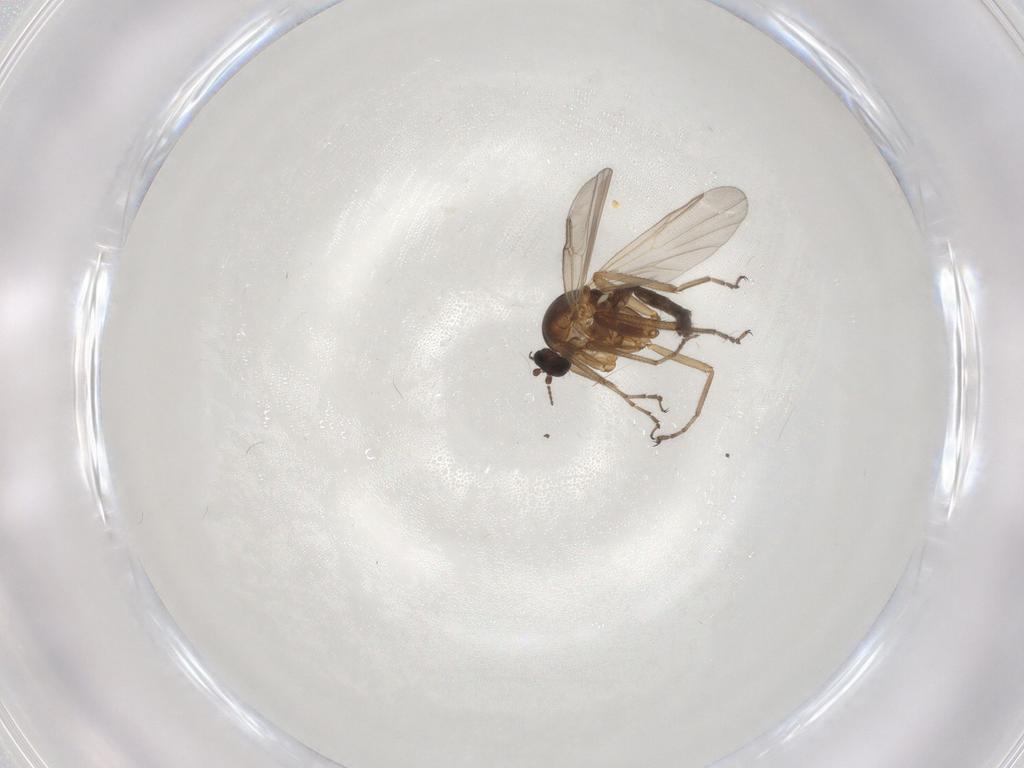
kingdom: Animalia
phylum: Arthropoda
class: Insecta
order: Diptera
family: Ceratopogonidae
